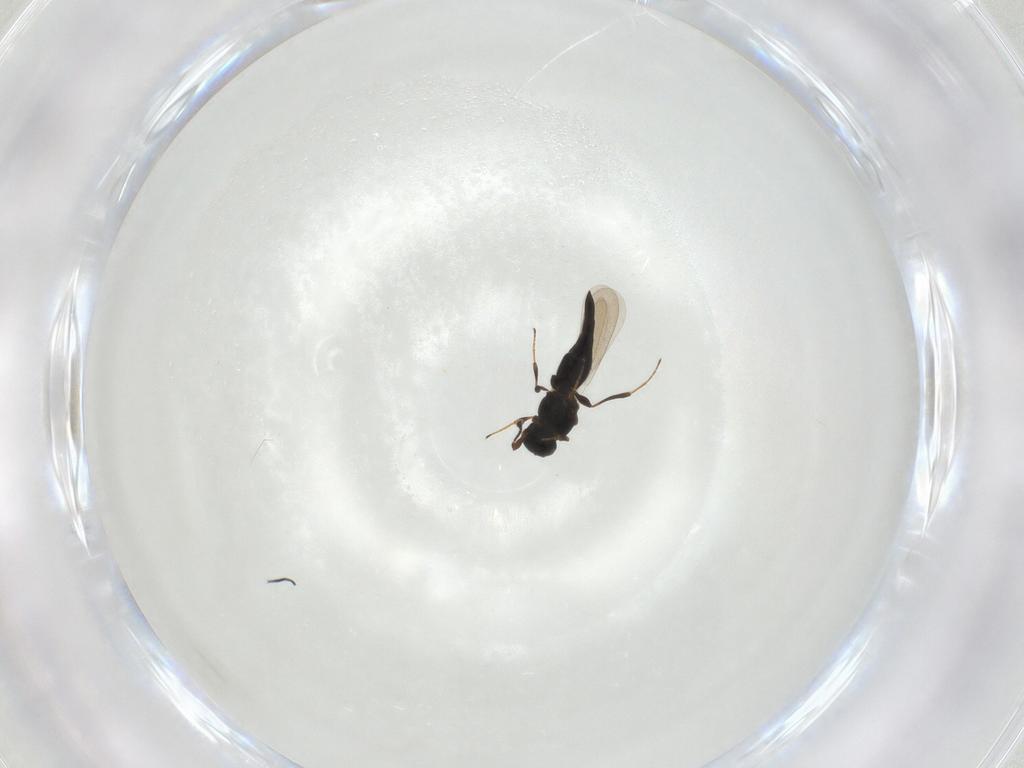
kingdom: Animalia
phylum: Arthropoda
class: Insecta
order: Hymenoptera
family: Platygastridae
